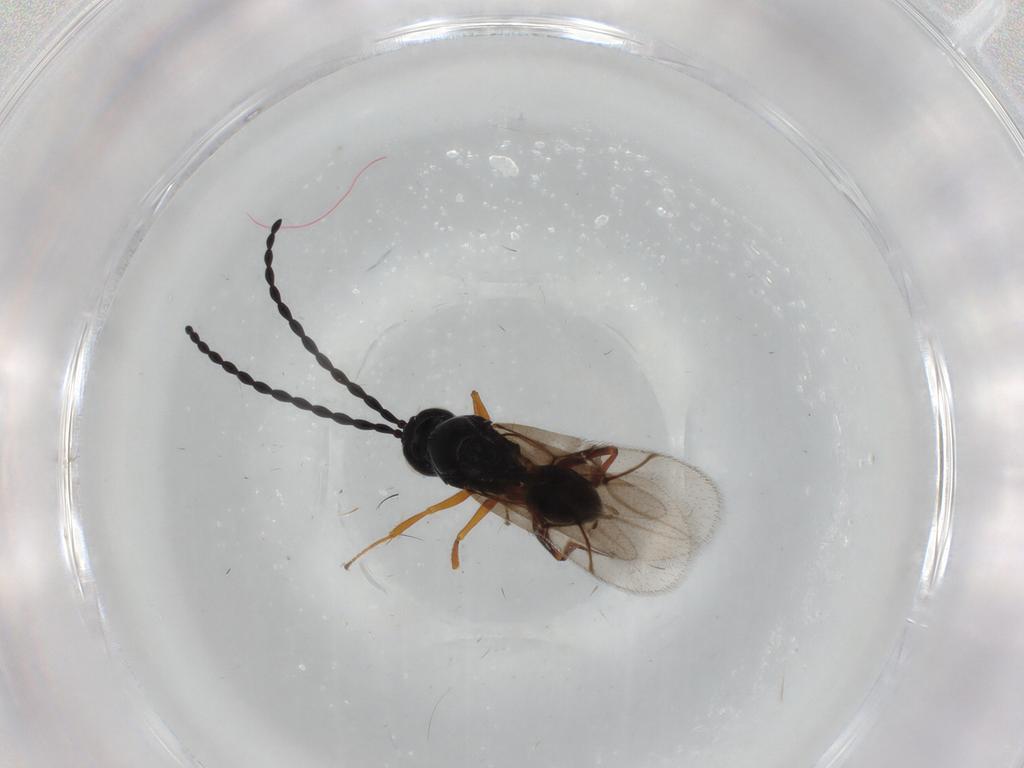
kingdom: Animalia
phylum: Arthropoda
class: Insecta
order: Hymenoptera
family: Figitidae
